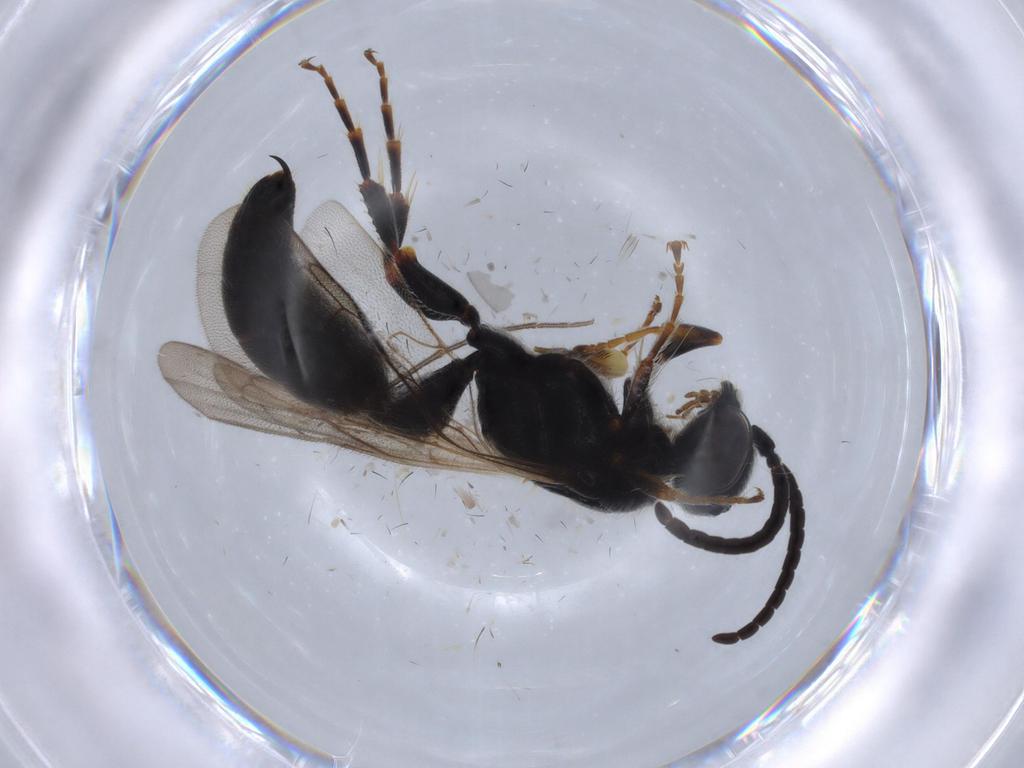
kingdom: Animalia
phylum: Arthropoda
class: Insecta
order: Hymenoptera
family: Tiphiidae
